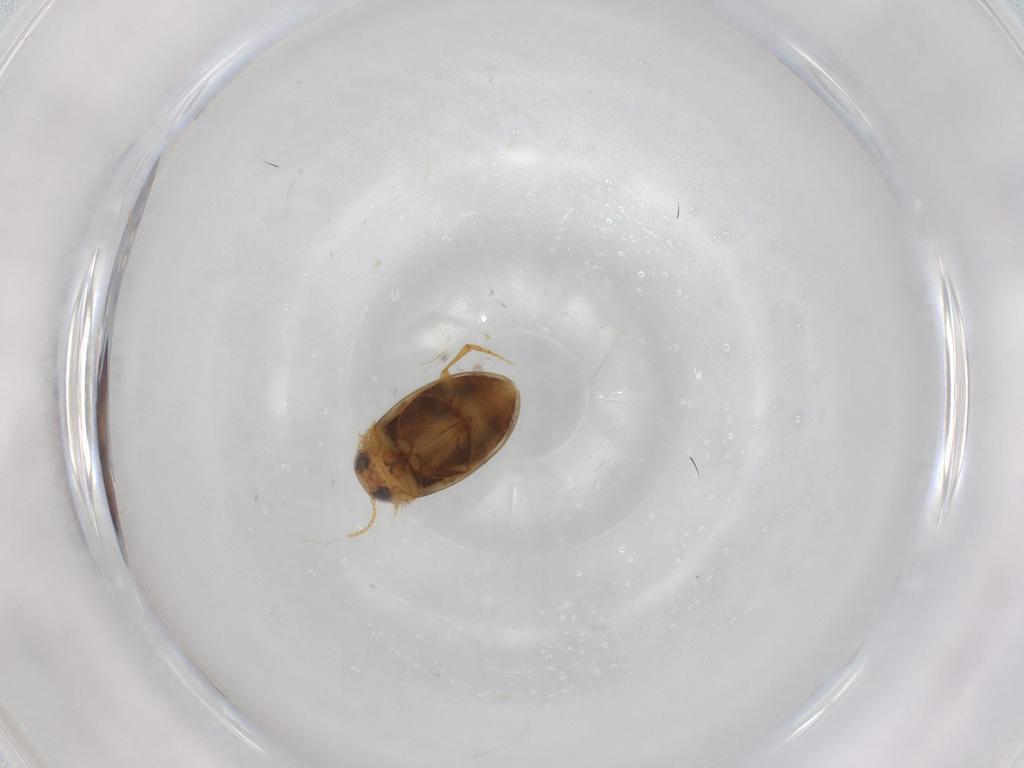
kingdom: Animalia
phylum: Arthropoda
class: Insecta
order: Coleoptera
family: Dytiscidae
